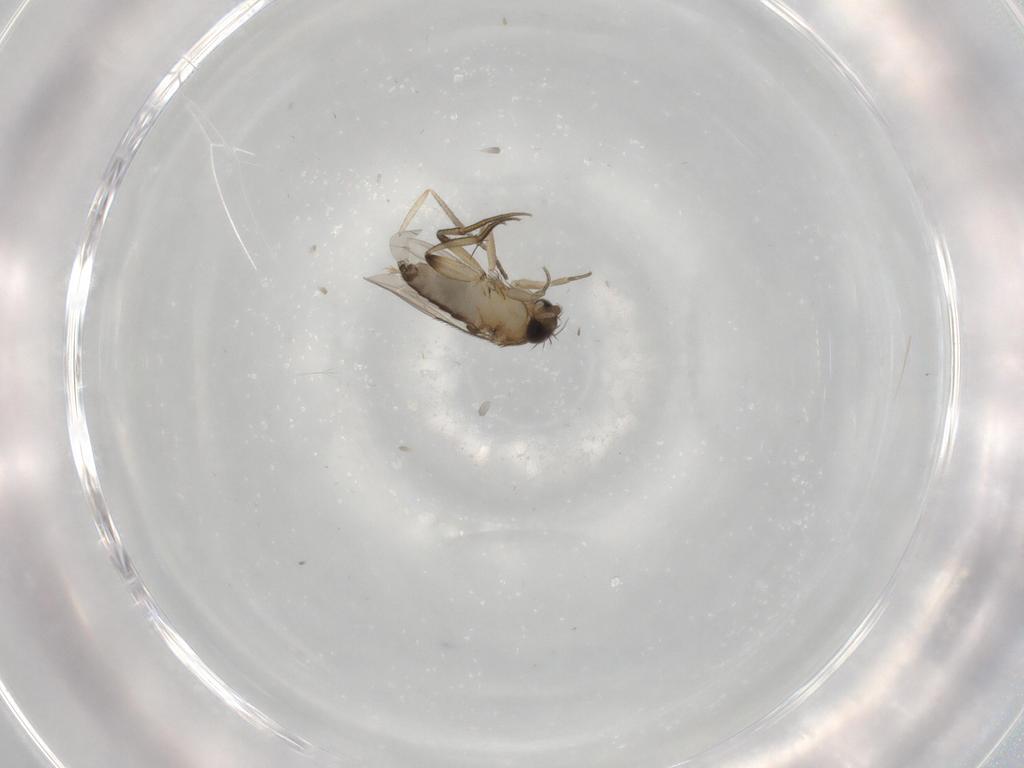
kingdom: Animalia
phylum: Arthropoda
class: Insecta
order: Diptera
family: Phoridae
